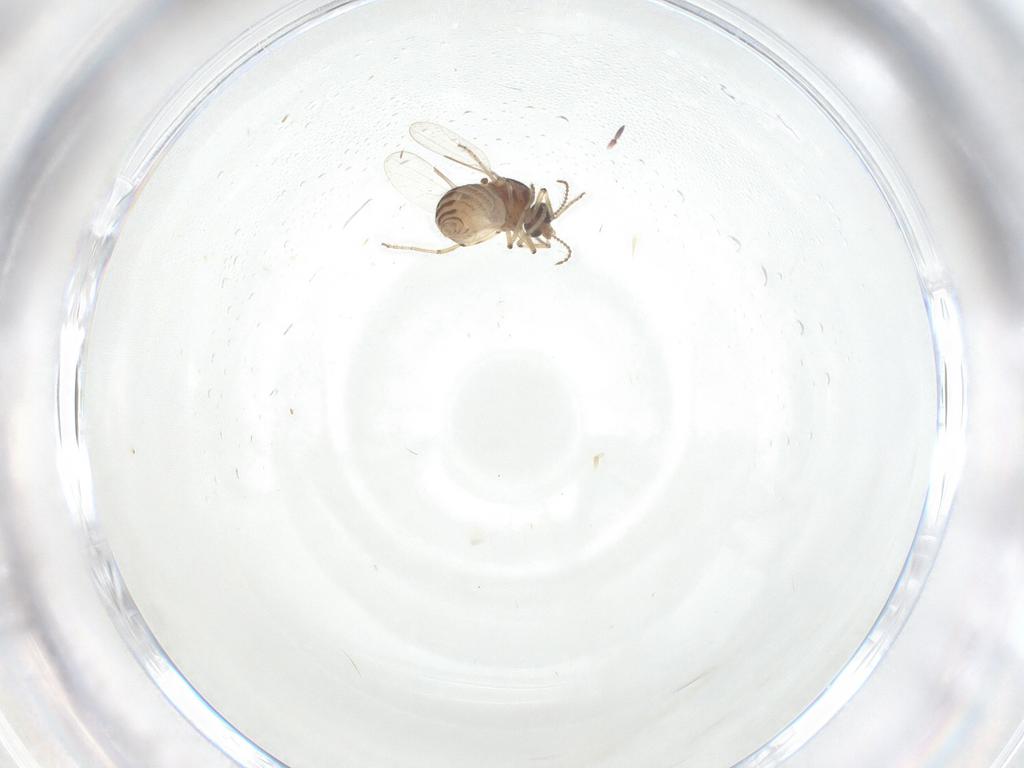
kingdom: Animalia
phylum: Arthropoda
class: Insecta
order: Diptera
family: Ceratopogonidae
